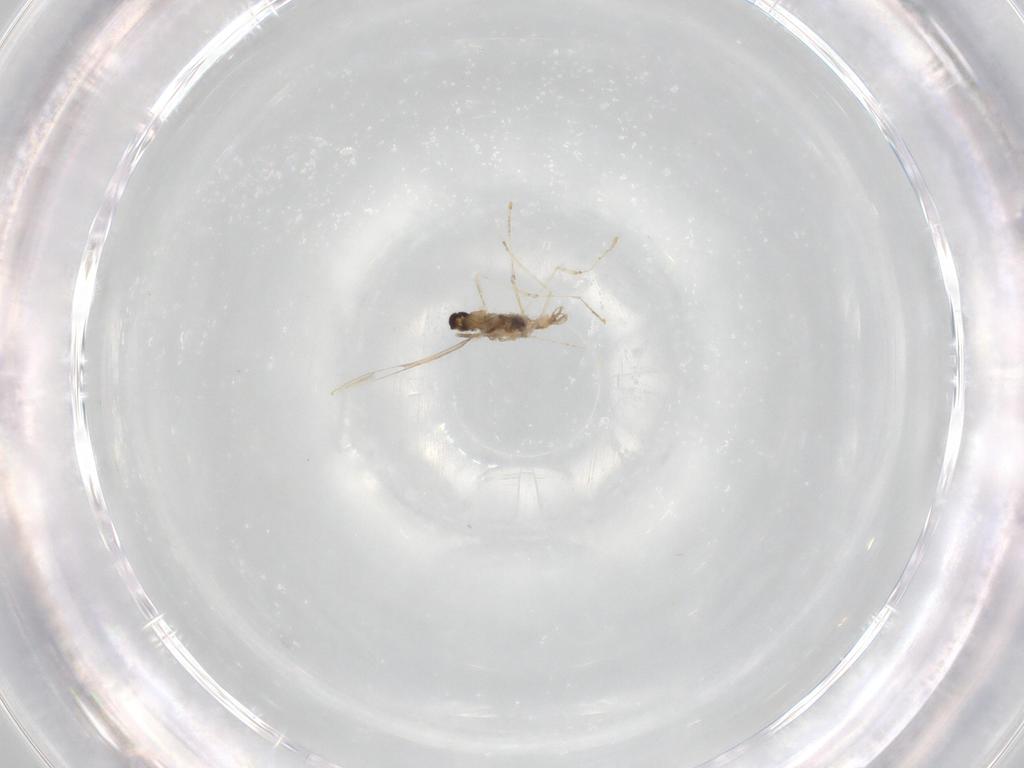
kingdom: Animalia
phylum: Arthropoda
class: Insecta
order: Diptera
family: Cecidomyiidae
